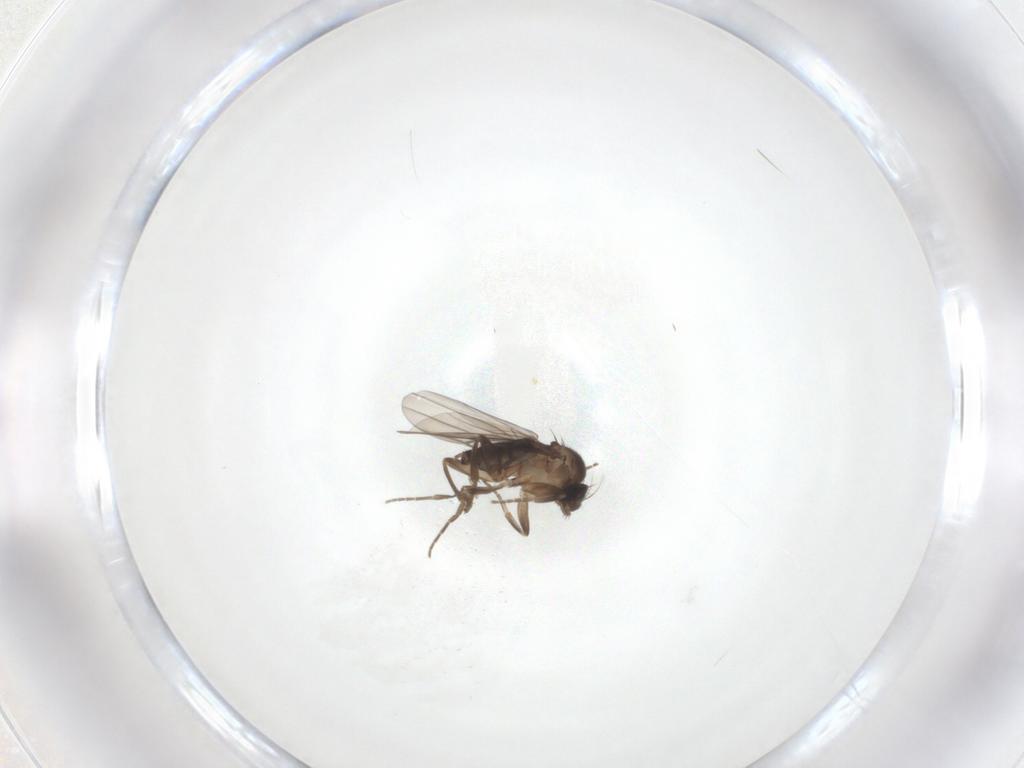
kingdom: Animalia
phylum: Arthropoda
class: Insecta
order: Diptera
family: Phoridae
